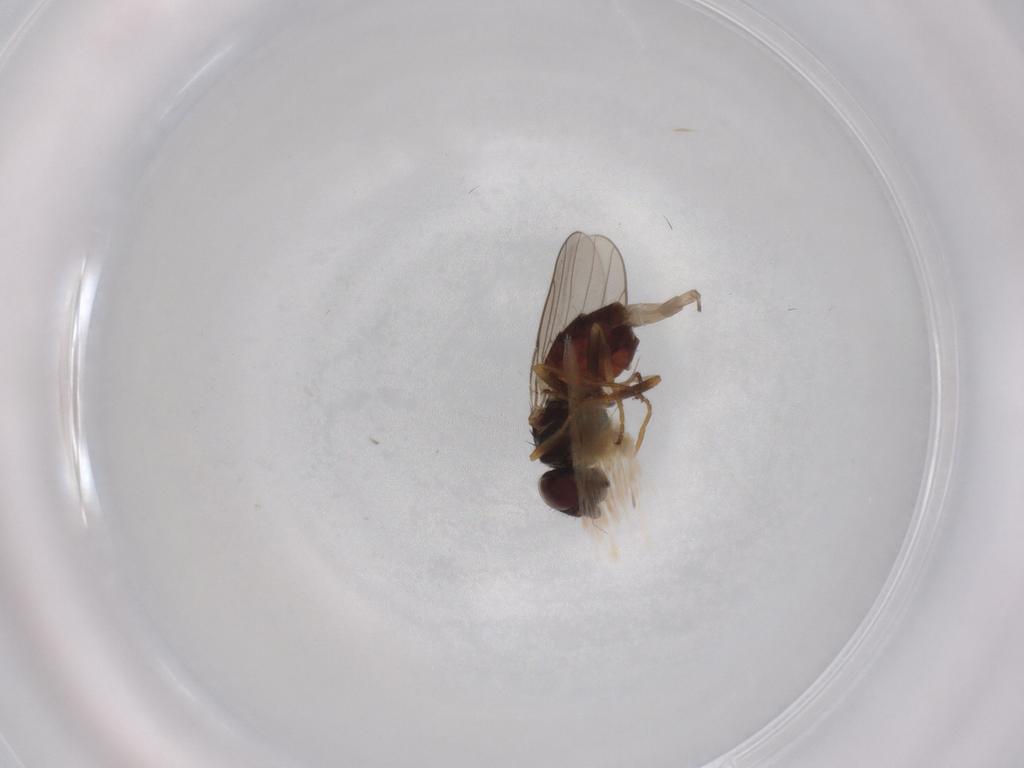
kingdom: Animalia
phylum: Arthropoda
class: Insecta
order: Diptera
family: Chloropidae
